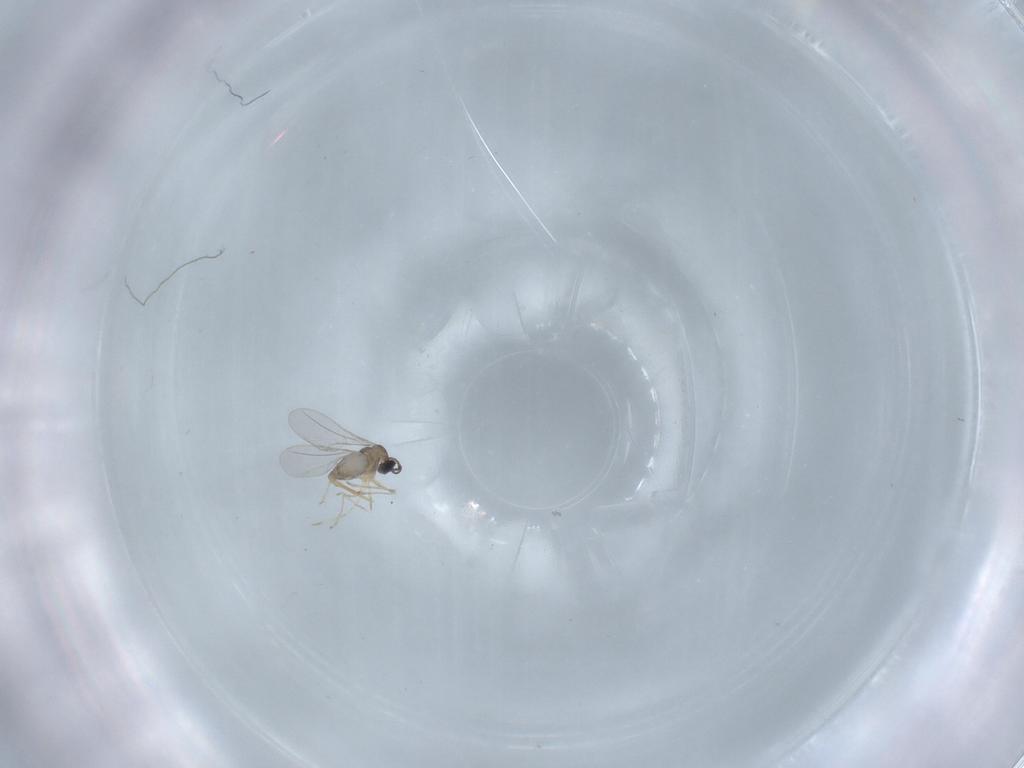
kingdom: Animalia
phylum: Arthropoda
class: Insecta
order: Diptera
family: Cecidomyiidae
